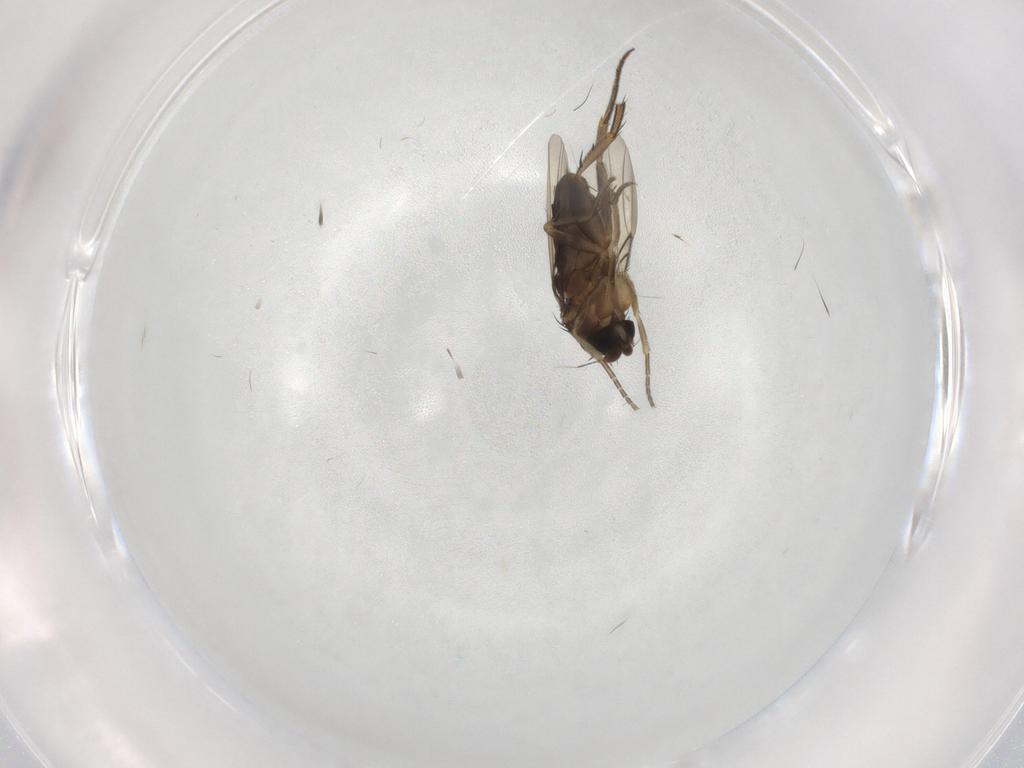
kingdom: Animalia
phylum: Arthropoda
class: Insecta
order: Diptera
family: Phoridae
